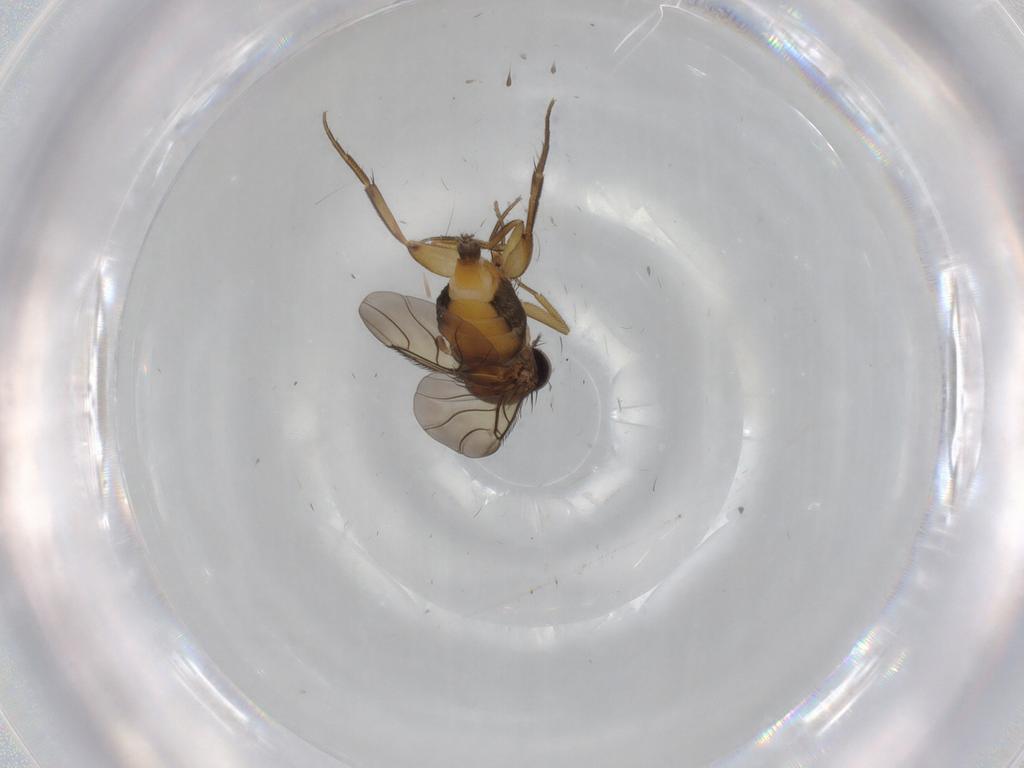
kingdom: Animalia
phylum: Arthropoda
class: Insecta
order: Diptera
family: Phoridae
